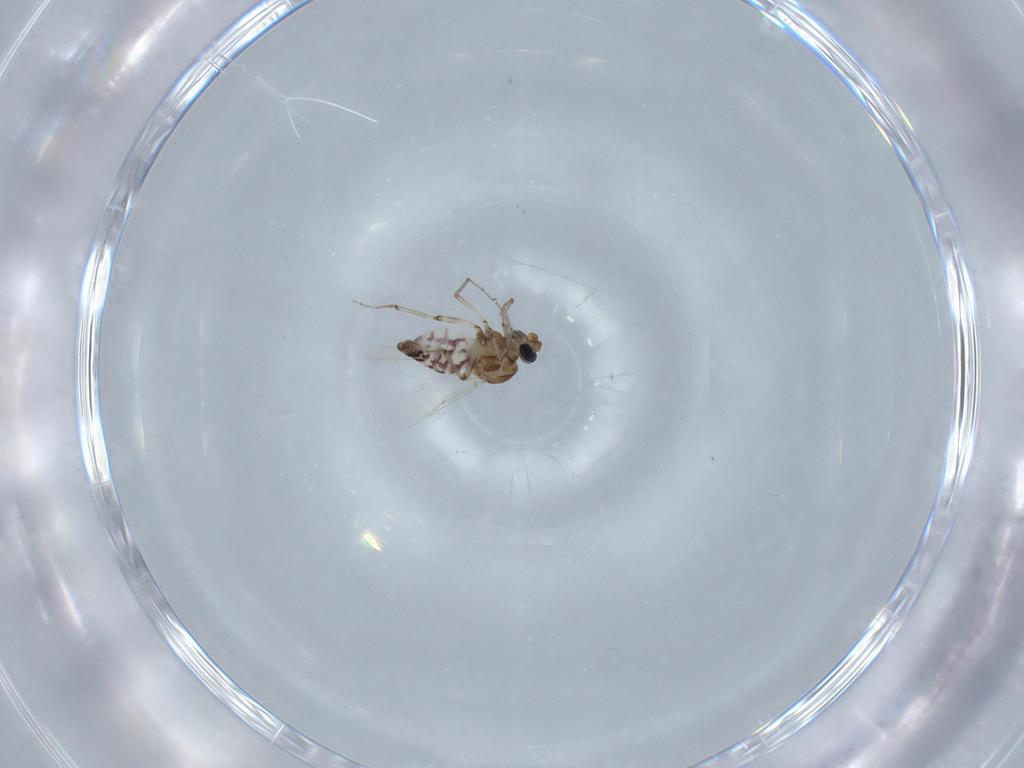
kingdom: Animalia
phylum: Arthropoda
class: Insecta
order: Diptera
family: Ceratopogonidae
